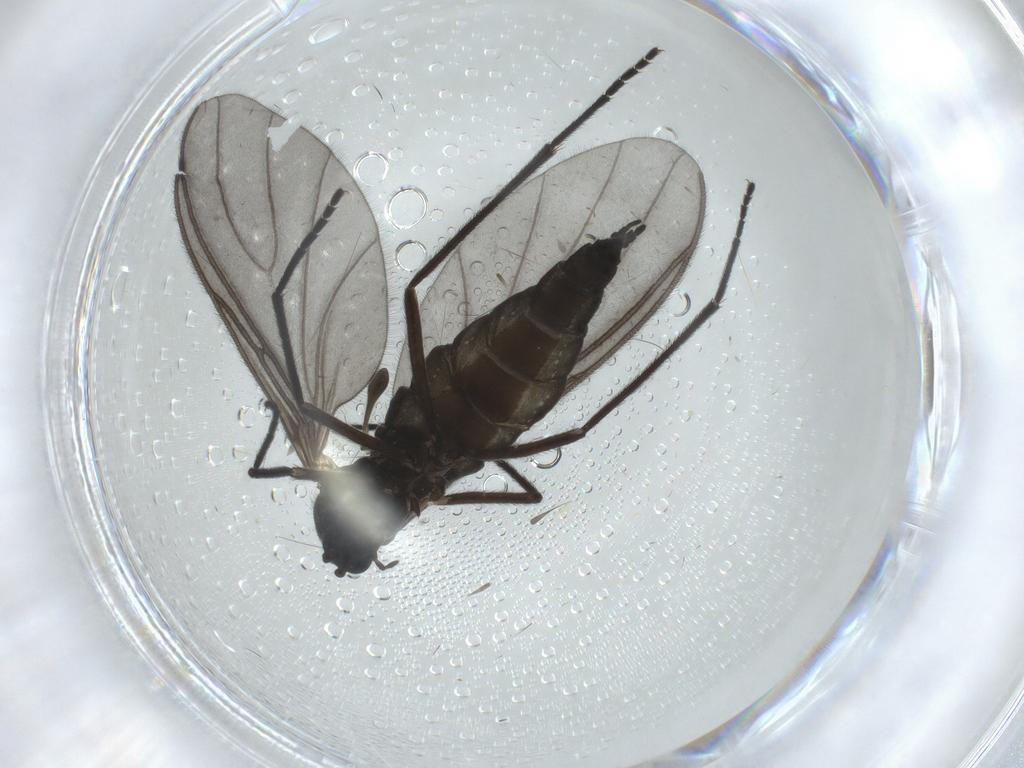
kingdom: Animalia
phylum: Arthropoda
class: Insecta
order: Diptera
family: Sciaridae
